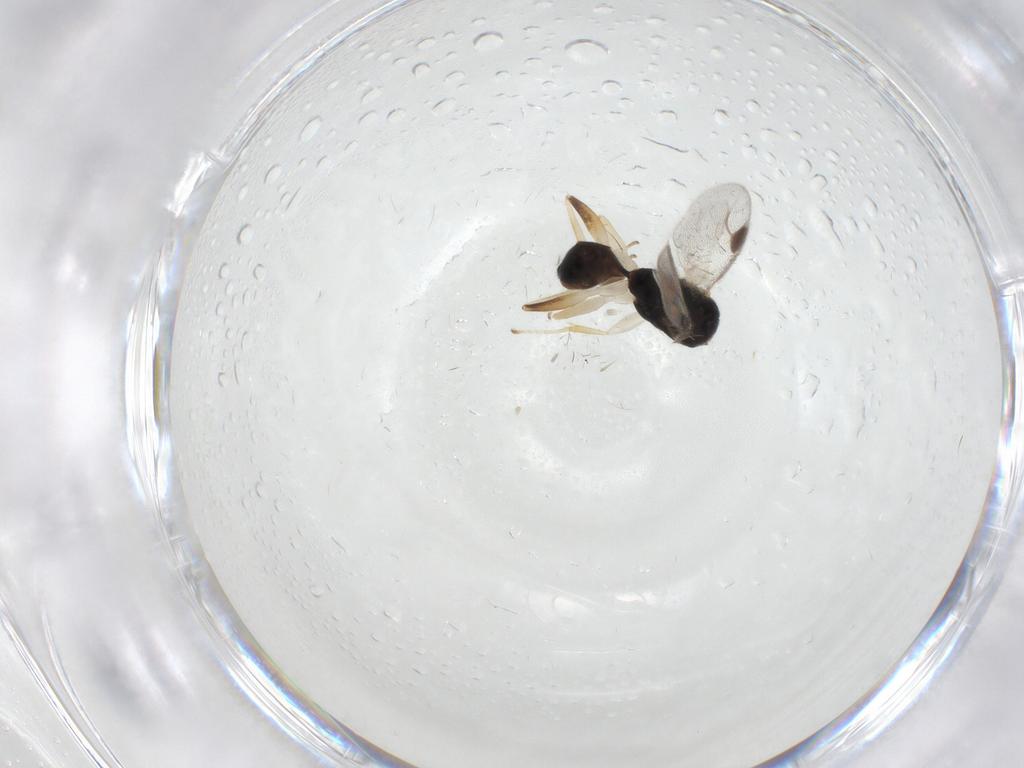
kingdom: Animalia
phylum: Arthropoda
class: Insecta
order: Hymenoptera
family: Dryinidae
